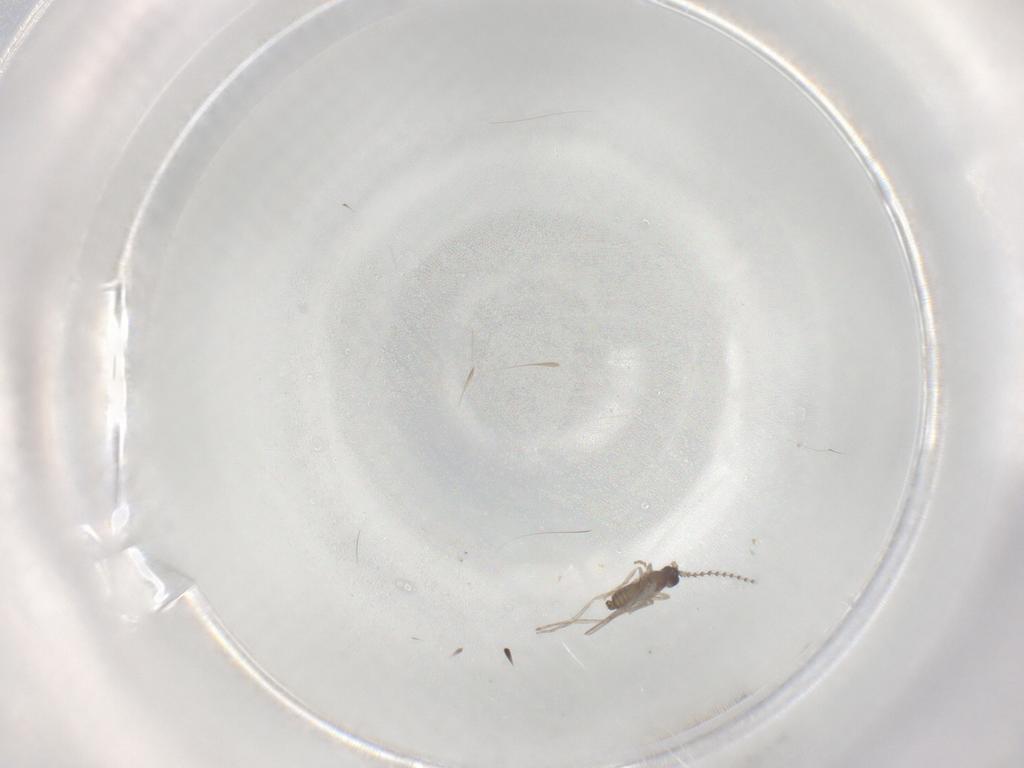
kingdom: Animalia
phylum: Arthropoda
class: Insecta
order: Diptera
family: Cecidomyiidae
